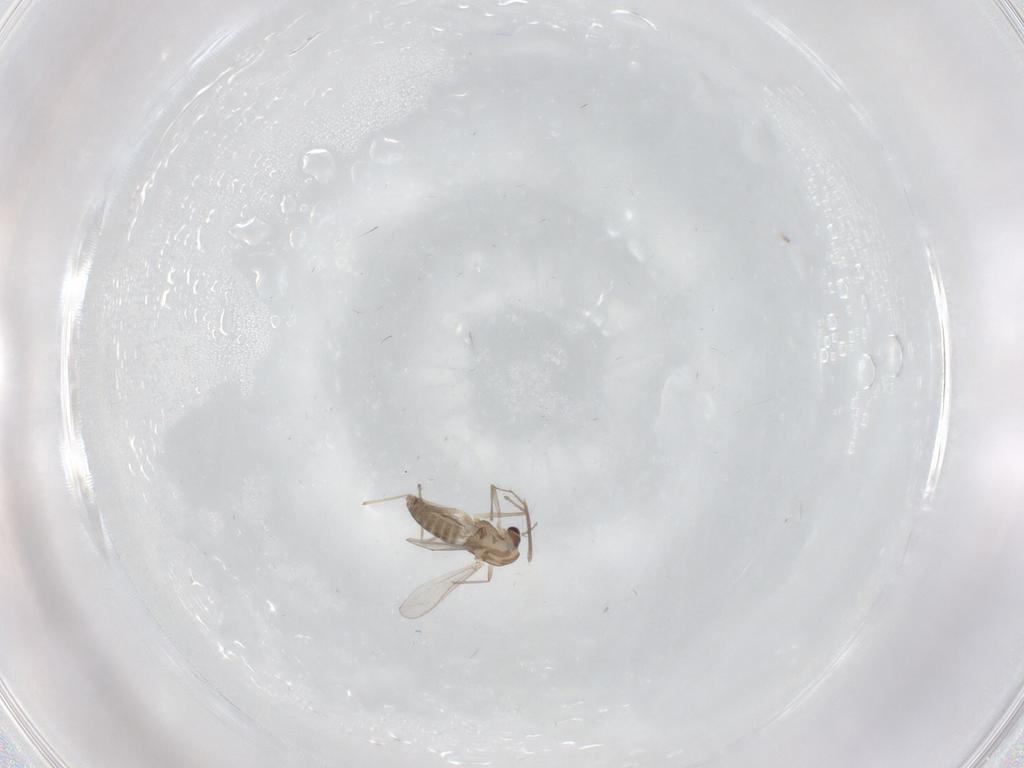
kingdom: Animalia
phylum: Arthropoda
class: Insecta
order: Diptera
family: Chironomidae
